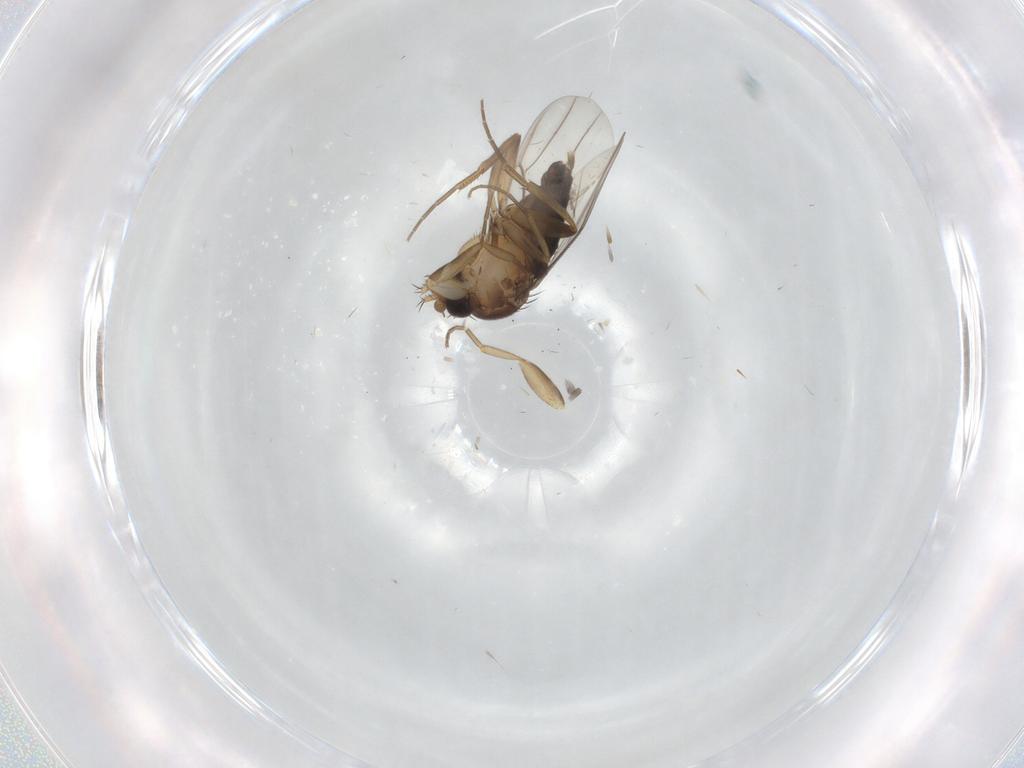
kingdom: Animalia
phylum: Arthropoda
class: Insecta
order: Diptera
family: Phoridae
